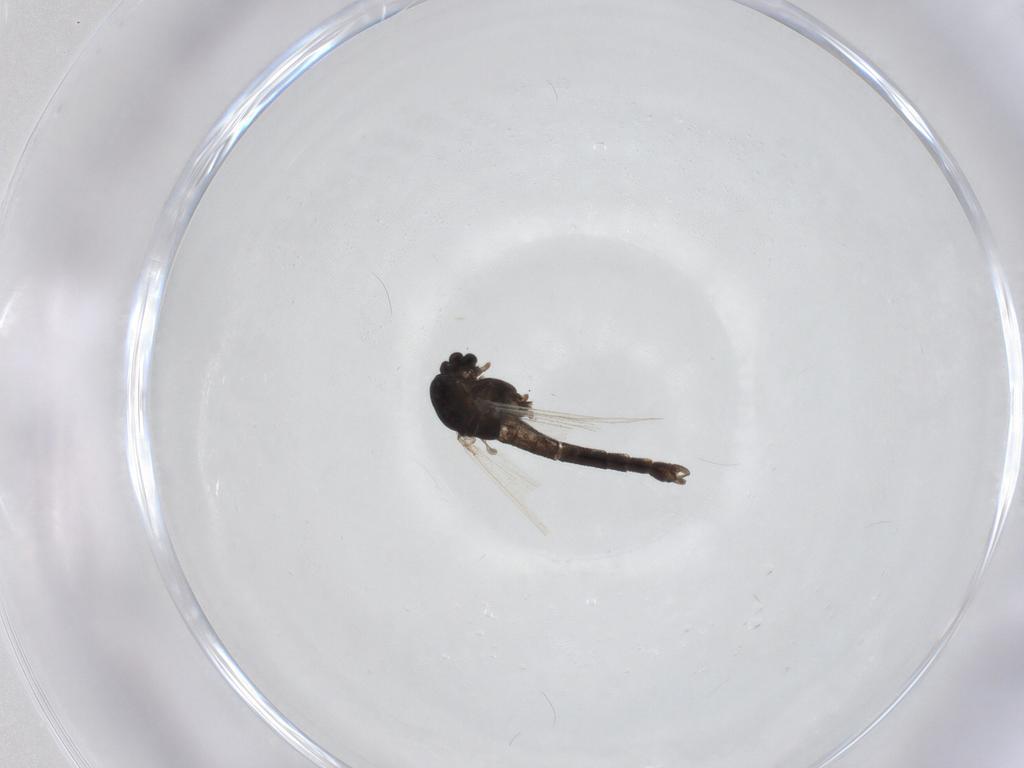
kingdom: Animalia
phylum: Arthropoda
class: Insecta
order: Diptera
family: Chironomidae
